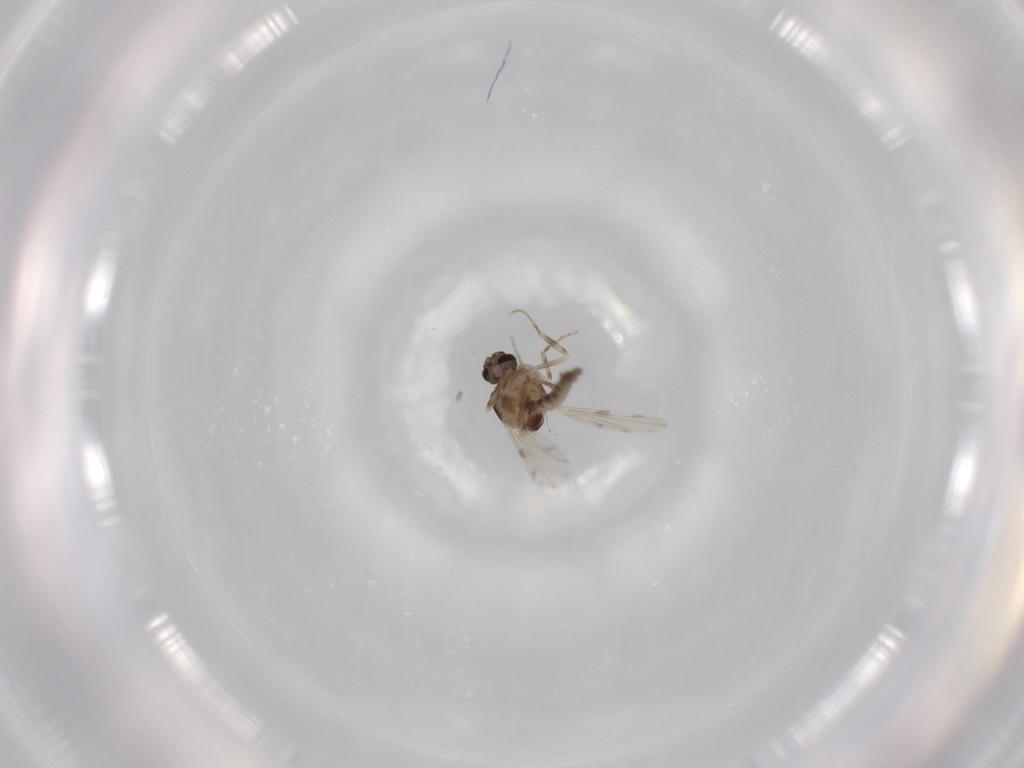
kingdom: Animalia
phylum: Arthropoda
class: Insecta
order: Diptera
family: Ceratopogonidae
